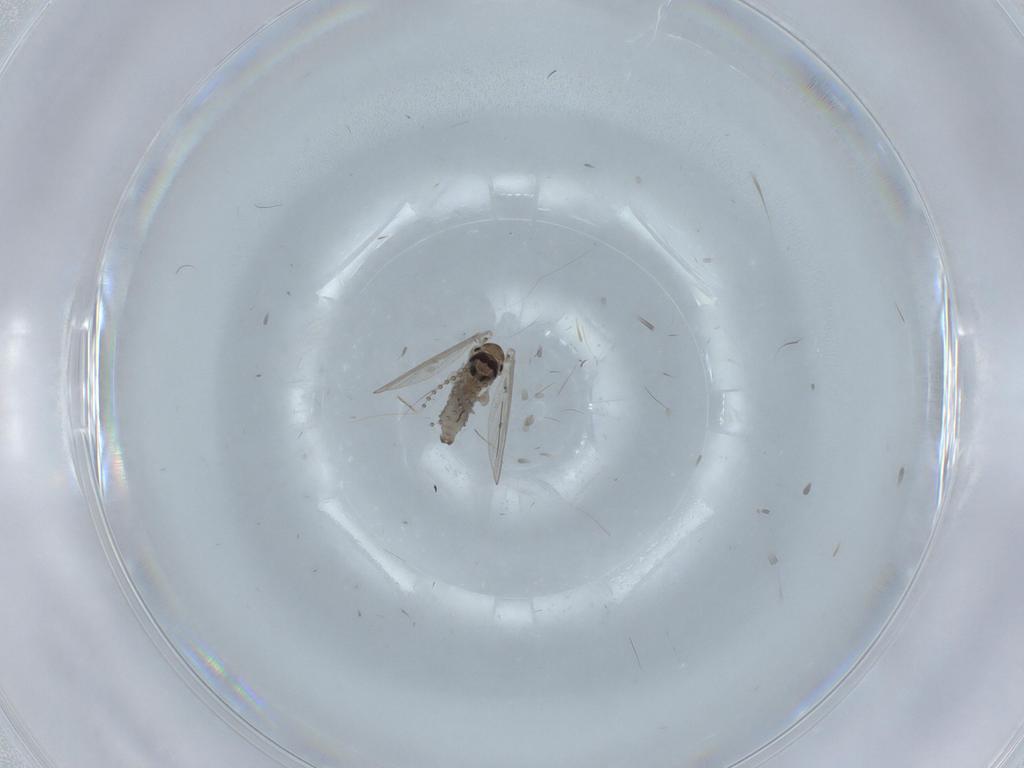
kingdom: Animalia
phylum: Arthropoda
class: Insecta
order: Diptera
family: Psychodidae
